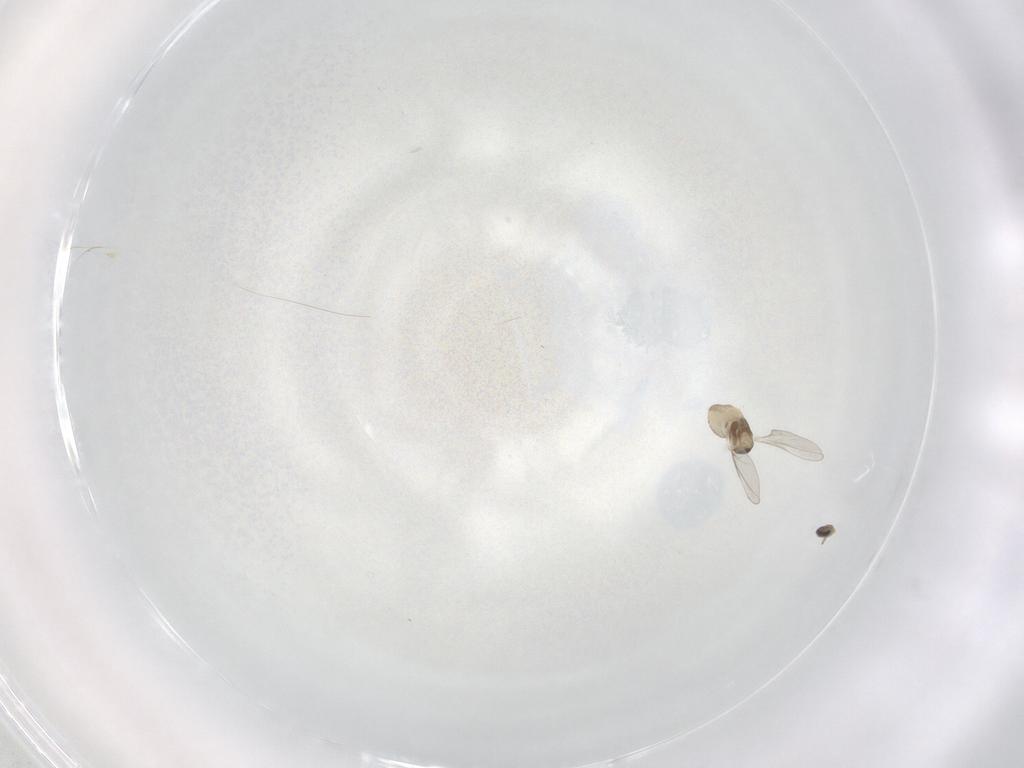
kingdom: Animalia
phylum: Arthropoda
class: Insecta
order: Diptera
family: Cecidomyiidae
